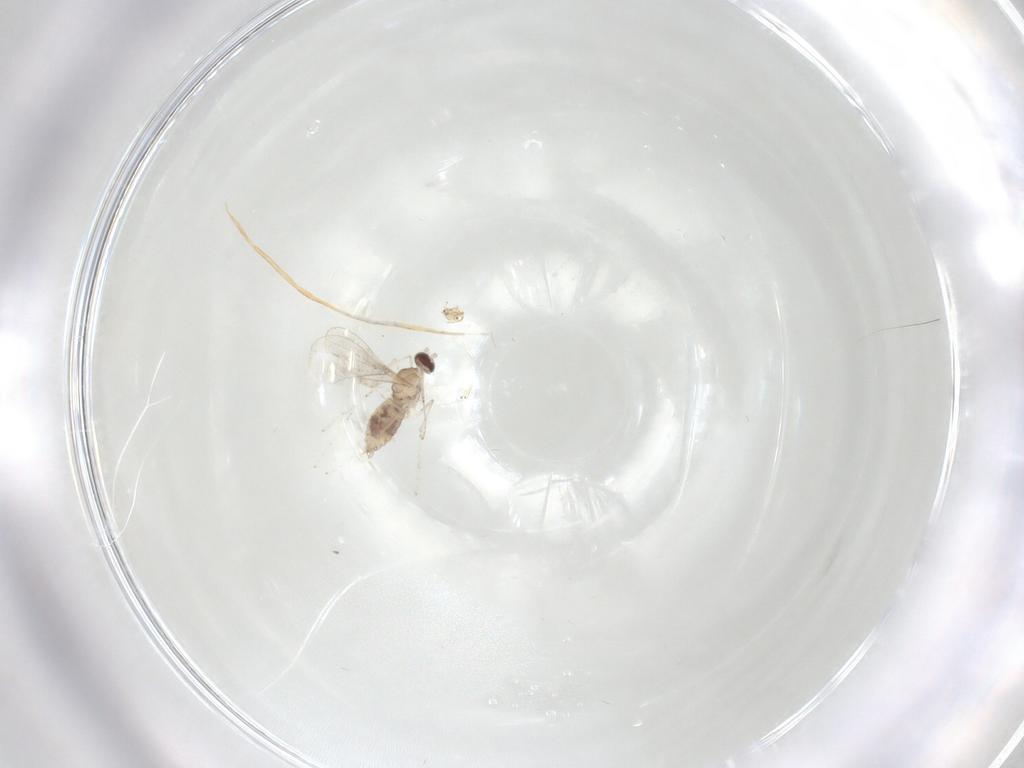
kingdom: Animalia
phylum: Arthropoda
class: Insecta
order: Diptera
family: Cecidomyiidae
